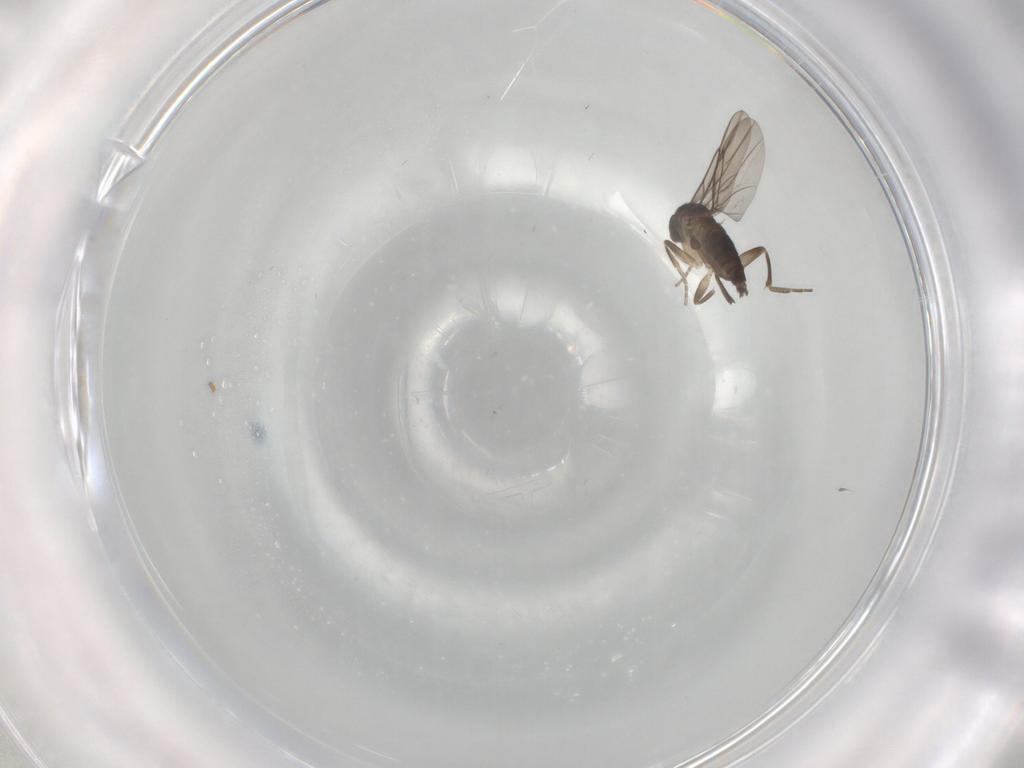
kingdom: Animalia
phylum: Arthropoda
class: Insecta
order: Diptera
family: Phoridae
